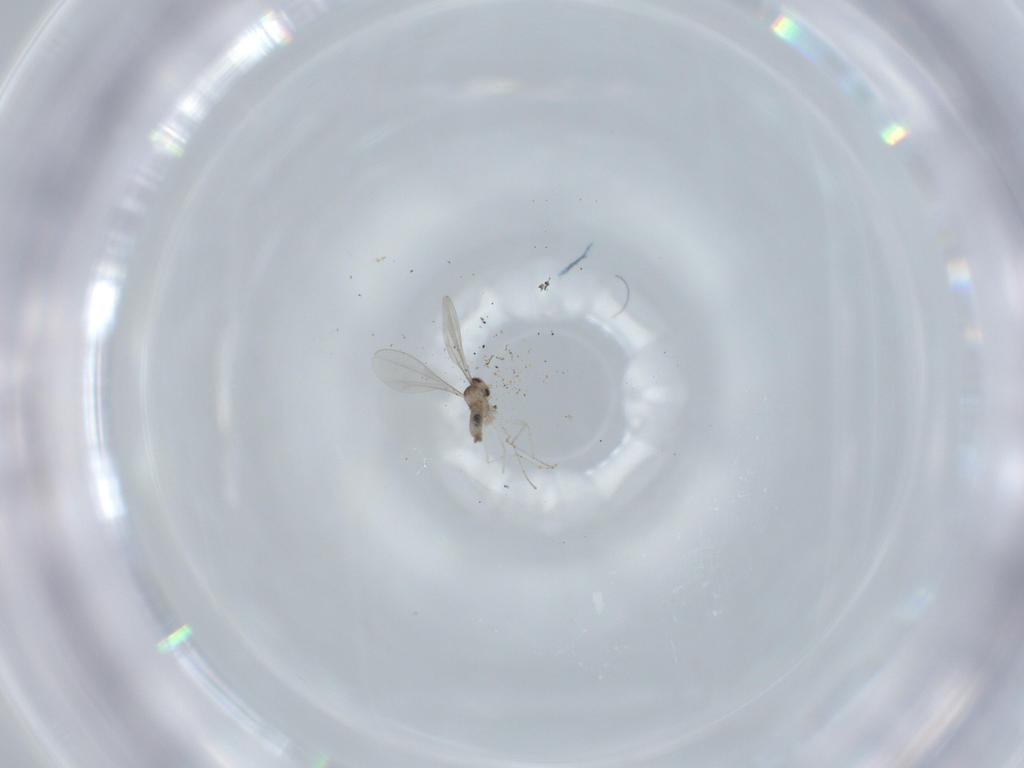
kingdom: Animalia
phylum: Arthropoda
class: Insecta
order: Diptera
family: Cecidomyiidae
